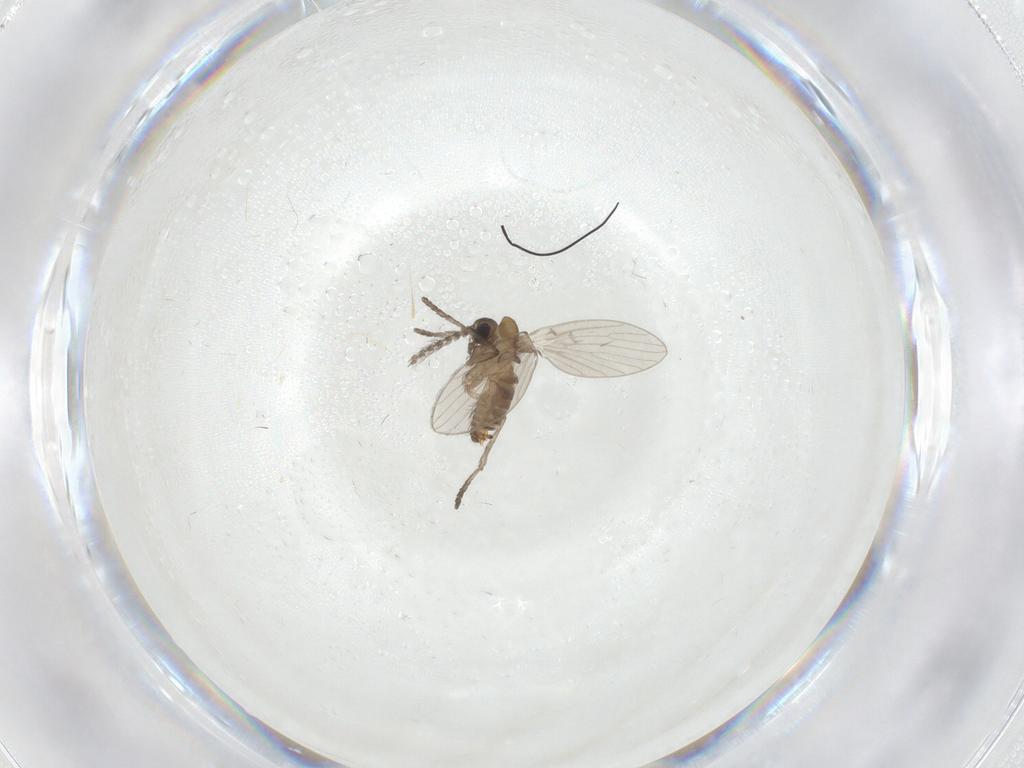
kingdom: Animalia
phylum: Arthropoda
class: Insecta
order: Diptera
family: Psychodidae
